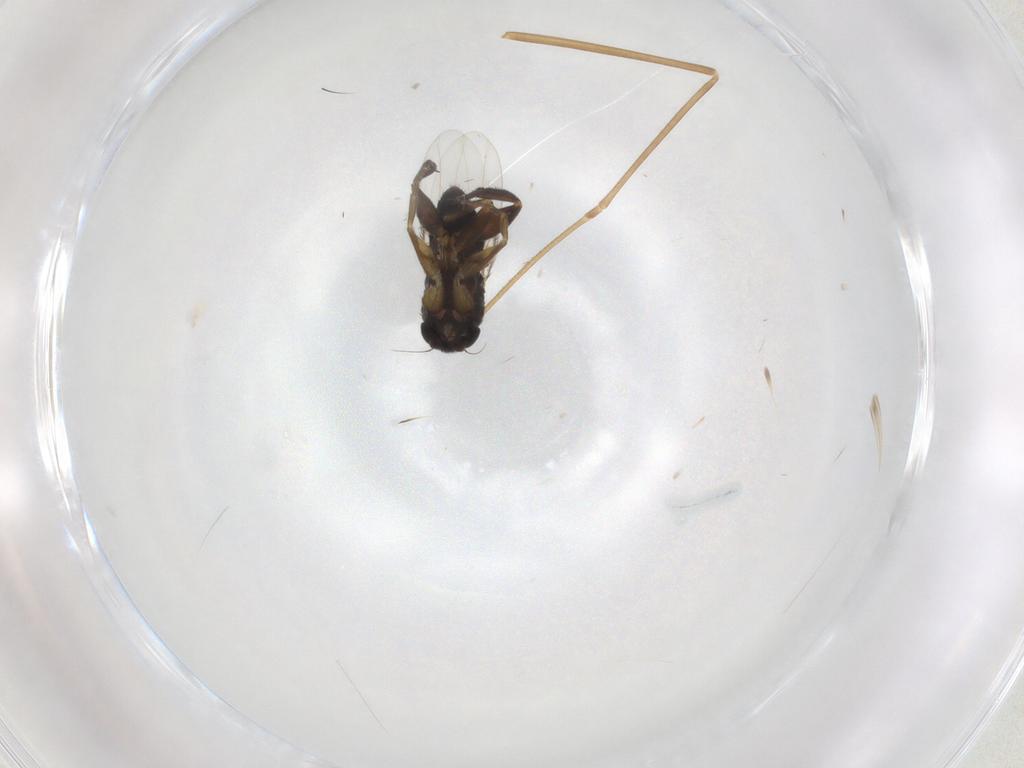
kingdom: Animalia
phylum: Arthropoda
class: Insecta
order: Diptera
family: Phoridae
